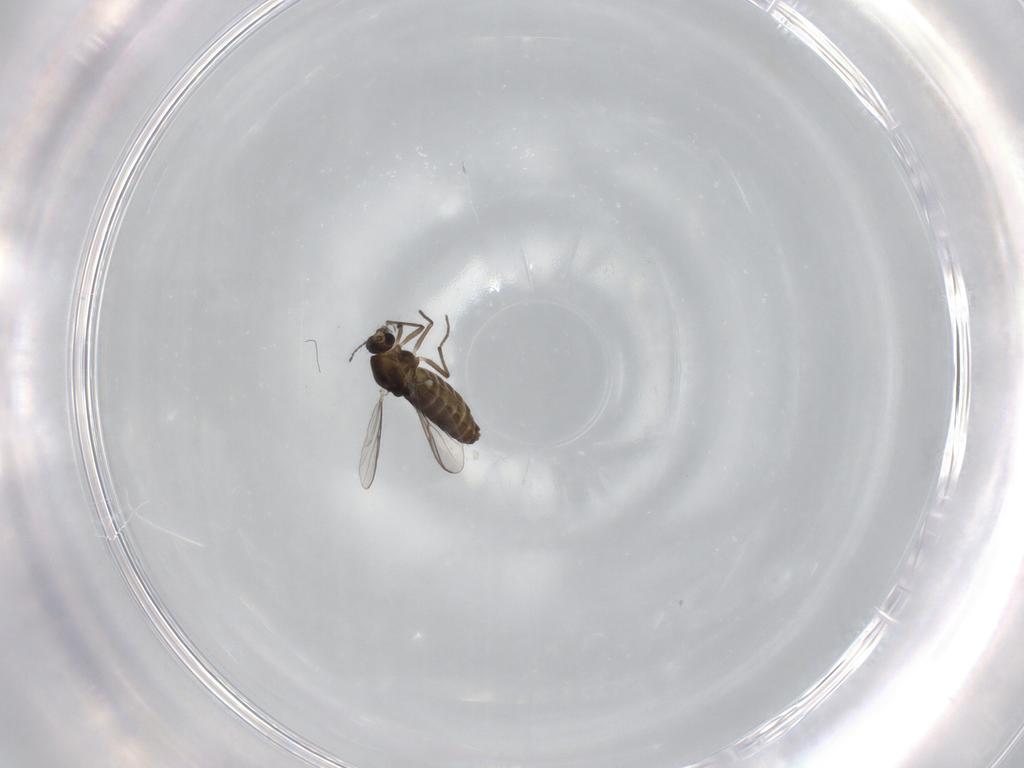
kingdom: Animalia
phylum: Arthropoda
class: Insecta
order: Diptera
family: Chironomidae
